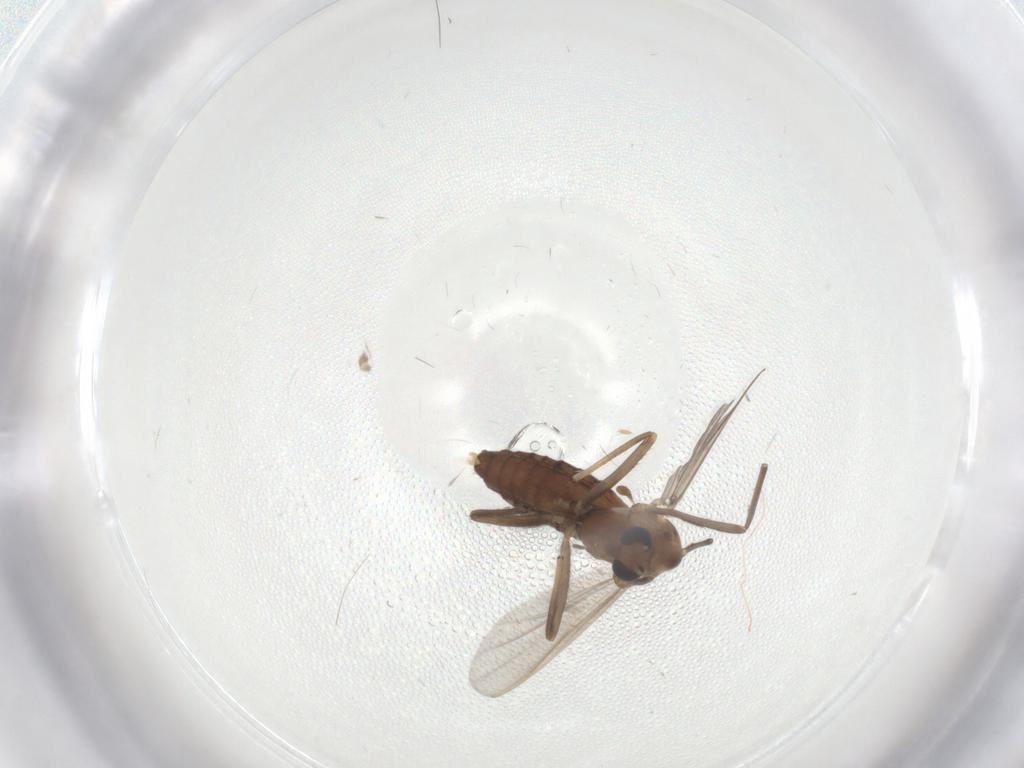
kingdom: Animalia
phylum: Arthropoda
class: Insecta
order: Diptera
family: Chironomidae
